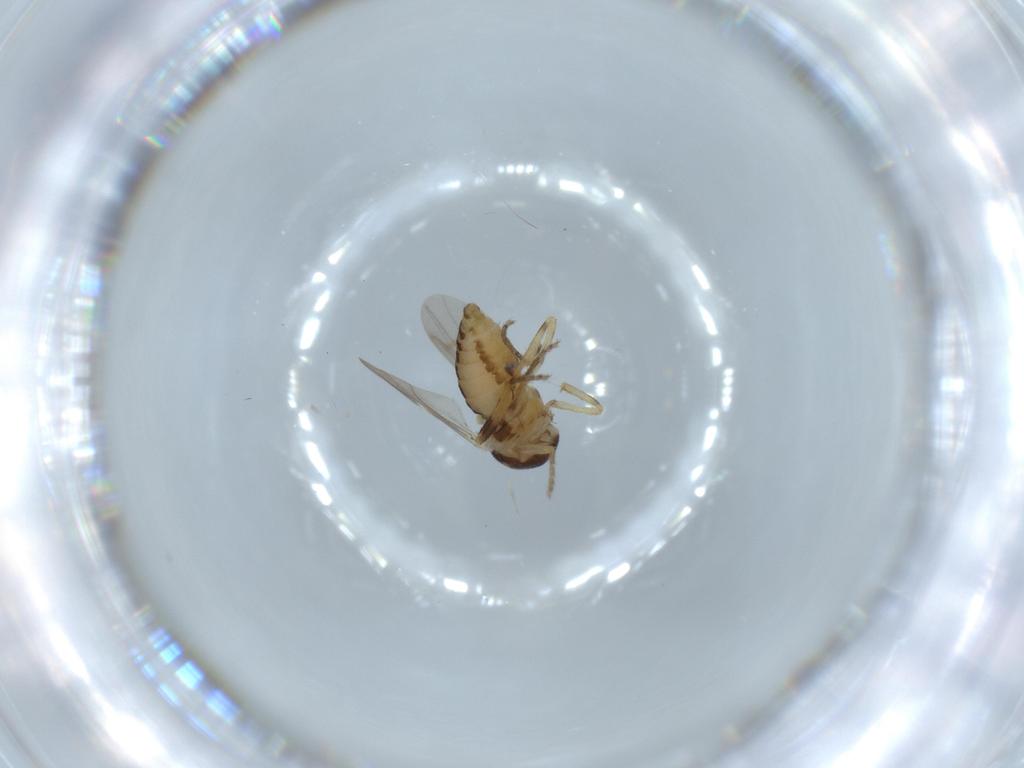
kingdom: Animalia
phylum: Arthropoda
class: Insecta
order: Diptera
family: Ceratopogonidae
